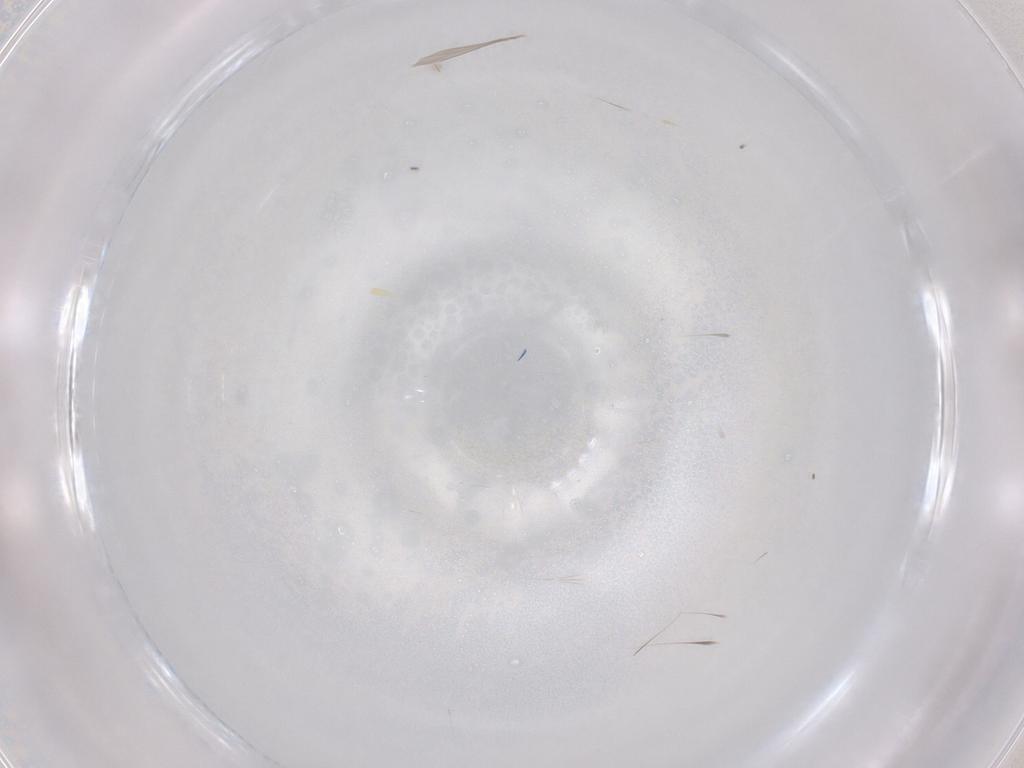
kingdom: Animalia
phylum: Arthropoda
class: Insecta
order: Hymenoptera
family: Formicidae
